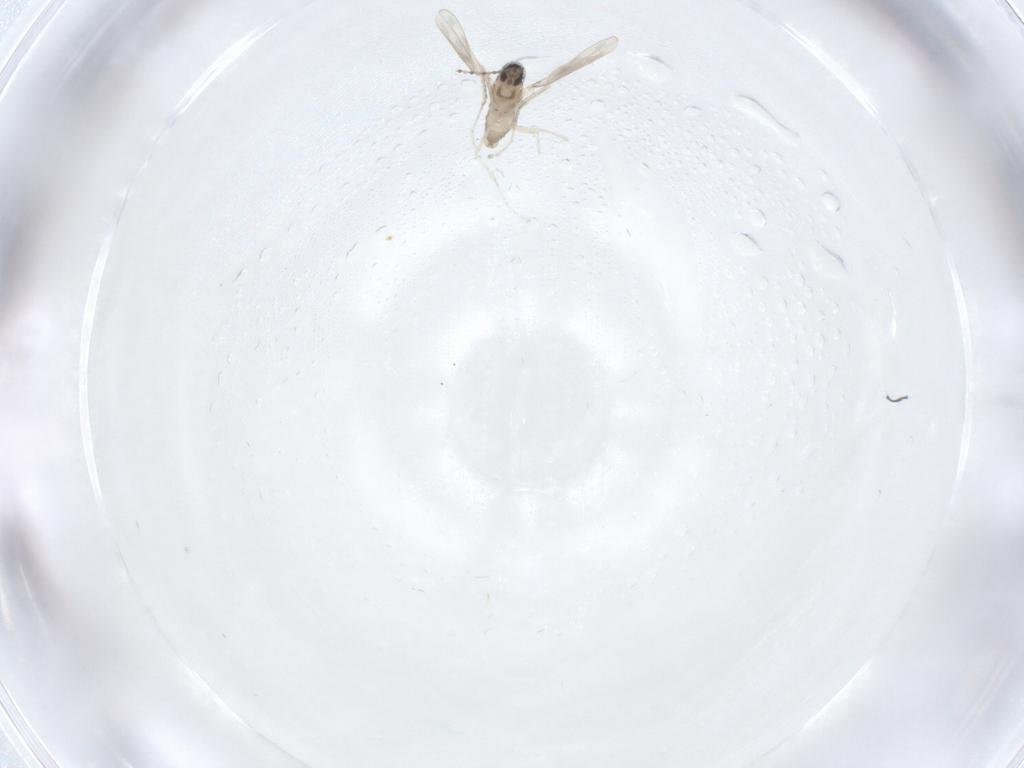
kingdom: Animalia
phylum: Arthropoda
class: Insecta
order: Diptera
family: Cecidomyiidae
